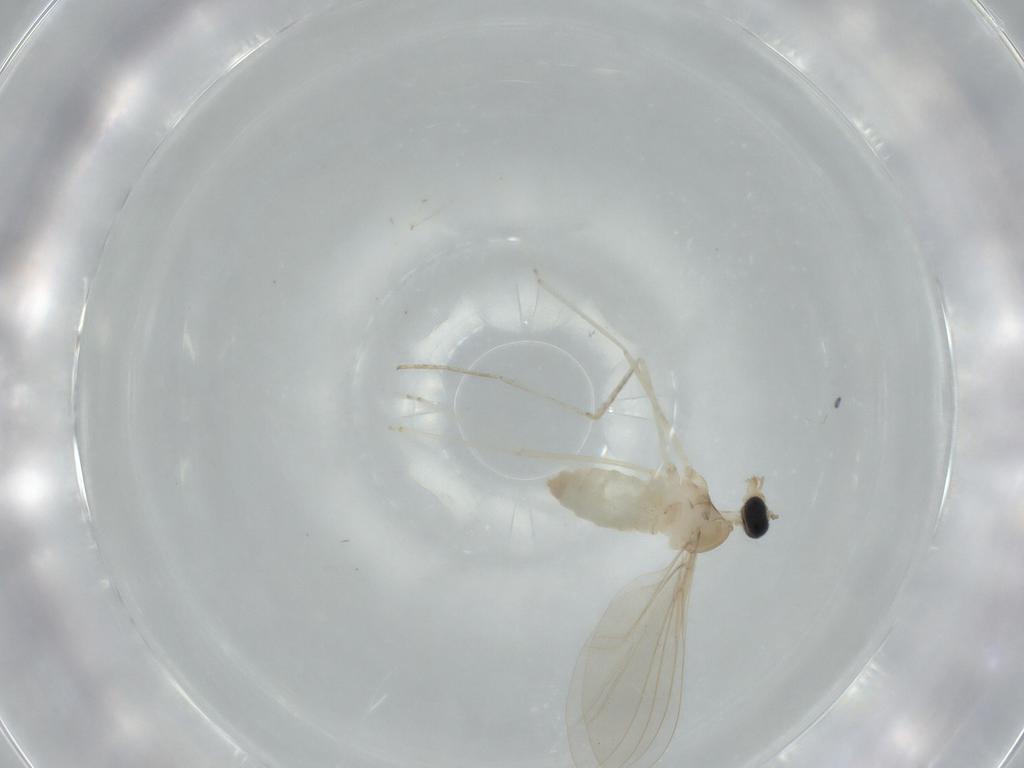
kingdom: Animalia
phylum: Arthropoda
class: Insecta
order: Diptera
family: Cecidomyiidae
